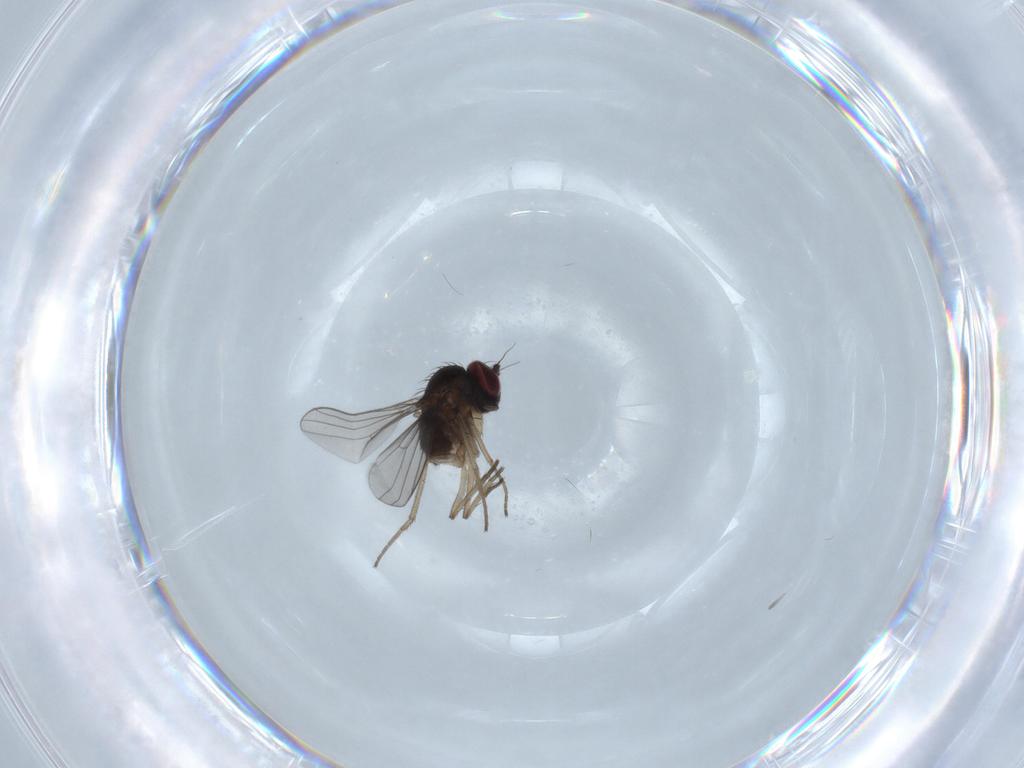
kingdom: Animalia
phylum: Arthropoda
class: Insecta
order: Diptera
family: Dolichopodidae
